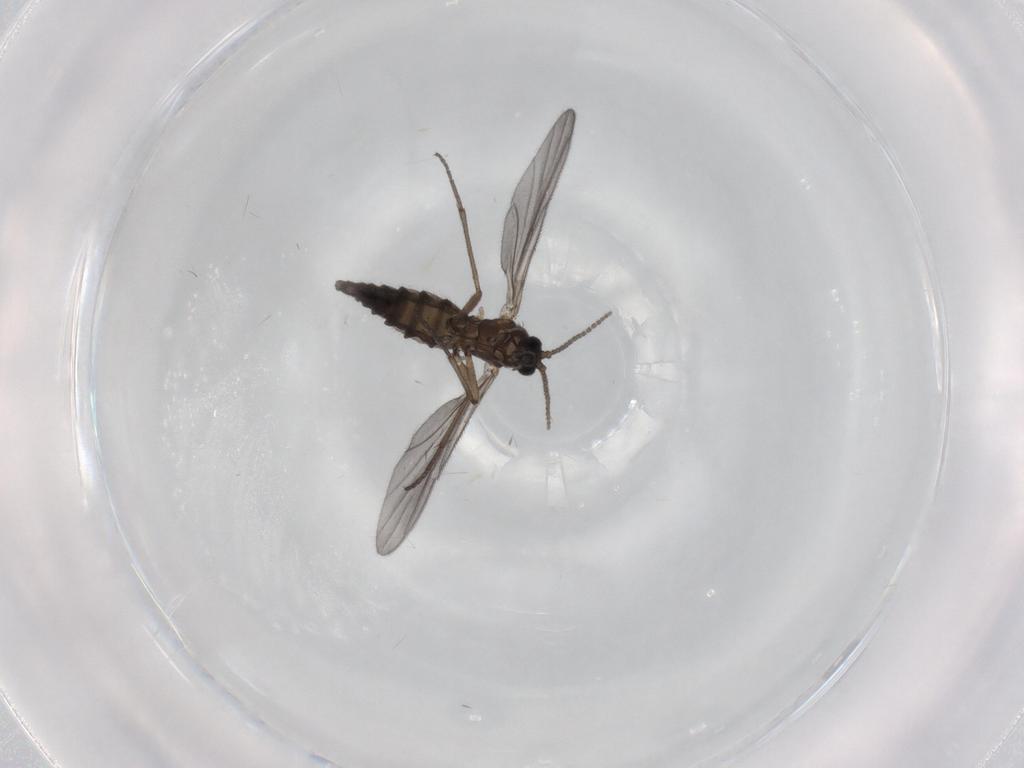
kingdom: Animalia
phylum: Arthropoda
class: Insecta
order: Diptera
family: Sciaridae
